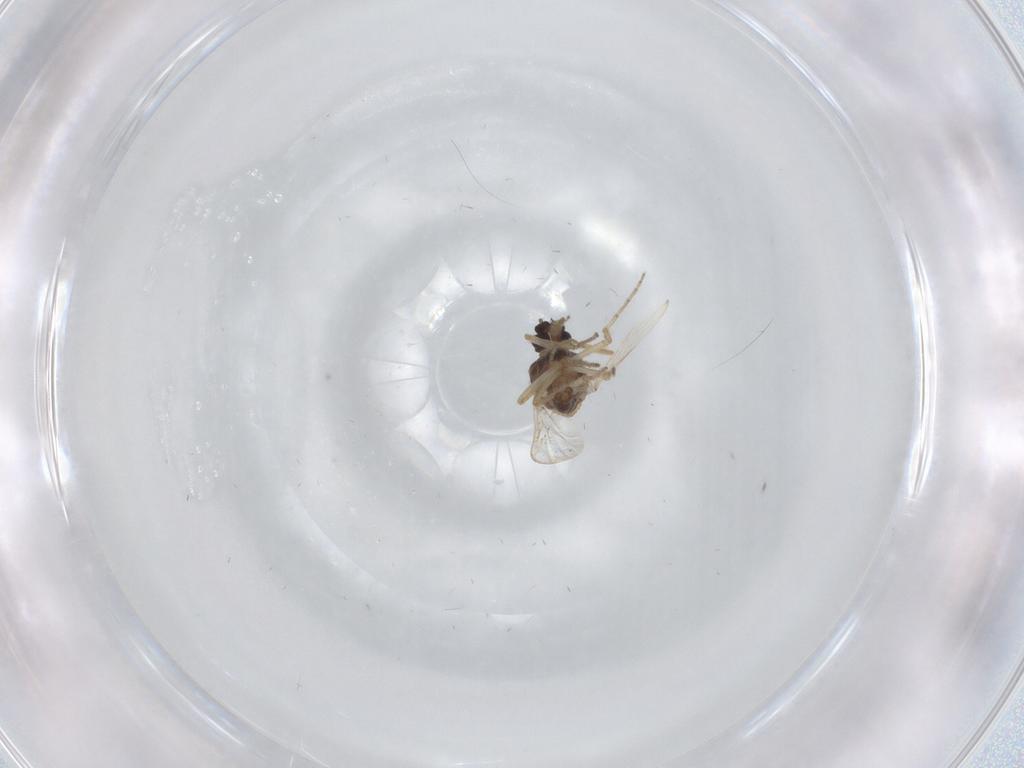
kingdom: Animalia
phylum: Arthropoda
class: Insecta
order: Diptera
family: Ceratopogonidae
